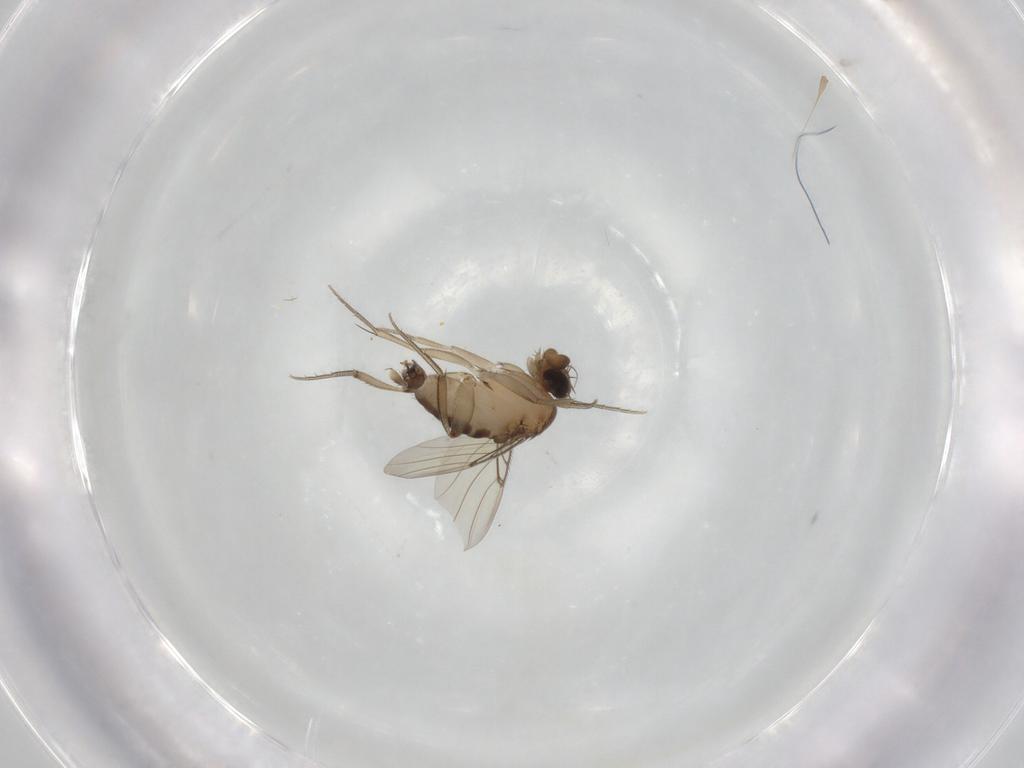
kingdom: Animalia
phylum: Arthropoda
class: Insecta
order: Diptera
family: Phoridae
